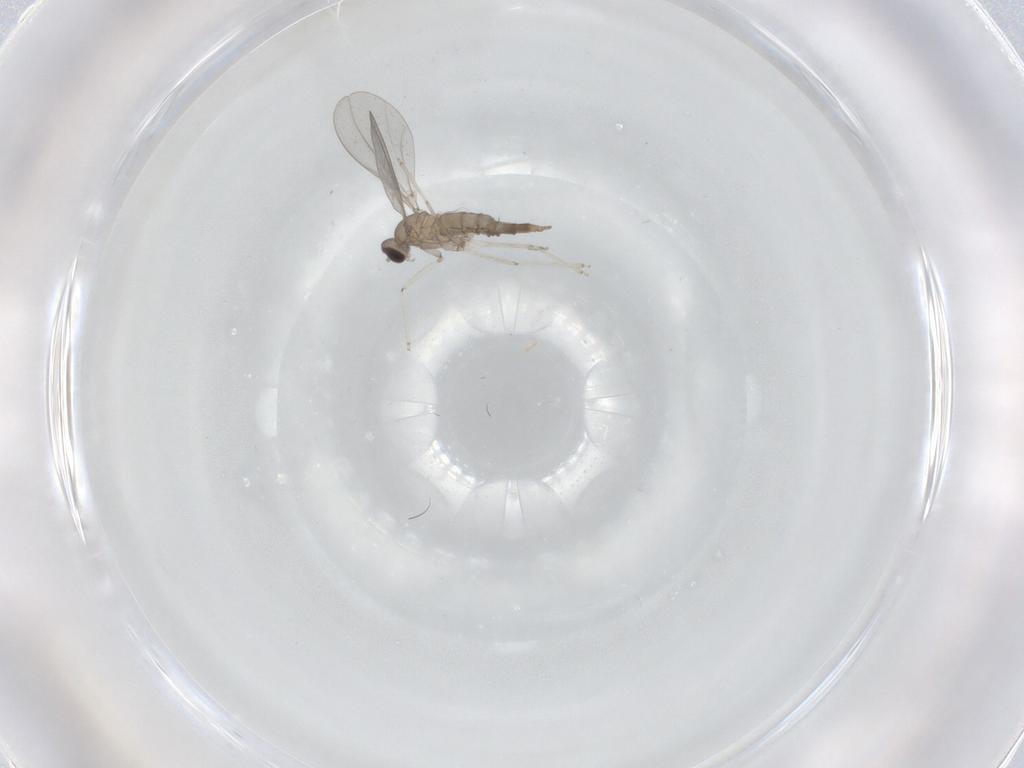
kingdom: Animalia
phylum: Arthropoda
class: Insecta
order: Diptera
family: Cecidomyiidae
